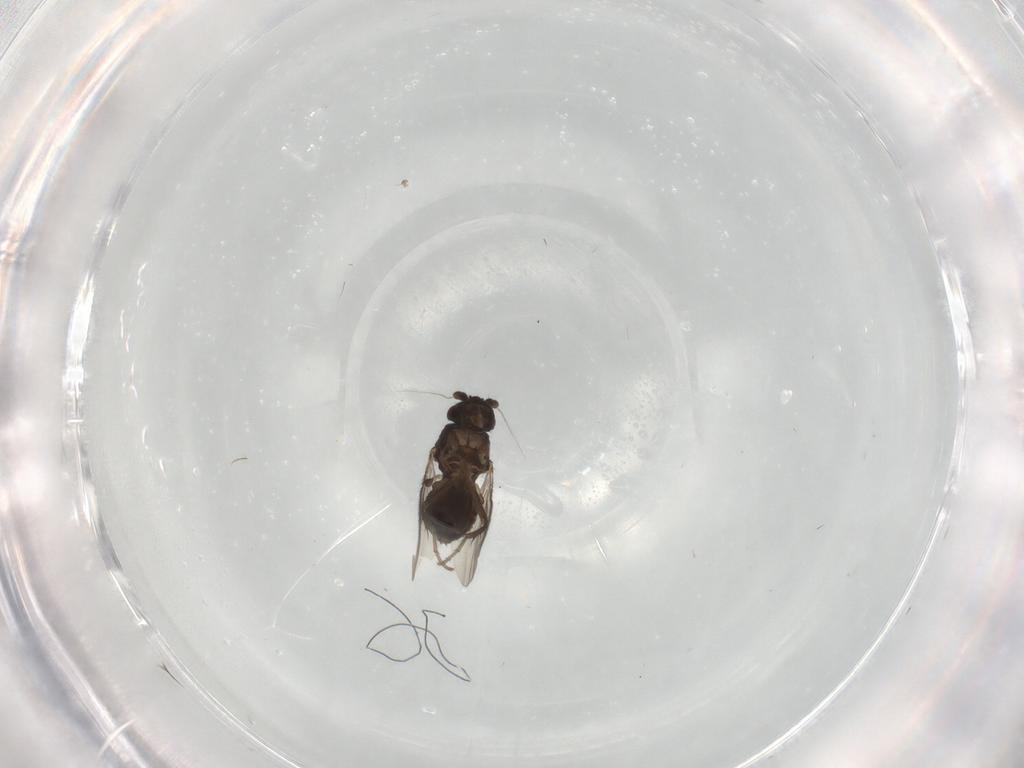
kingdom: Animalia
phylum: Arthropoda
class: Insecta
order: Diptera
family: Sphaeroceridae
